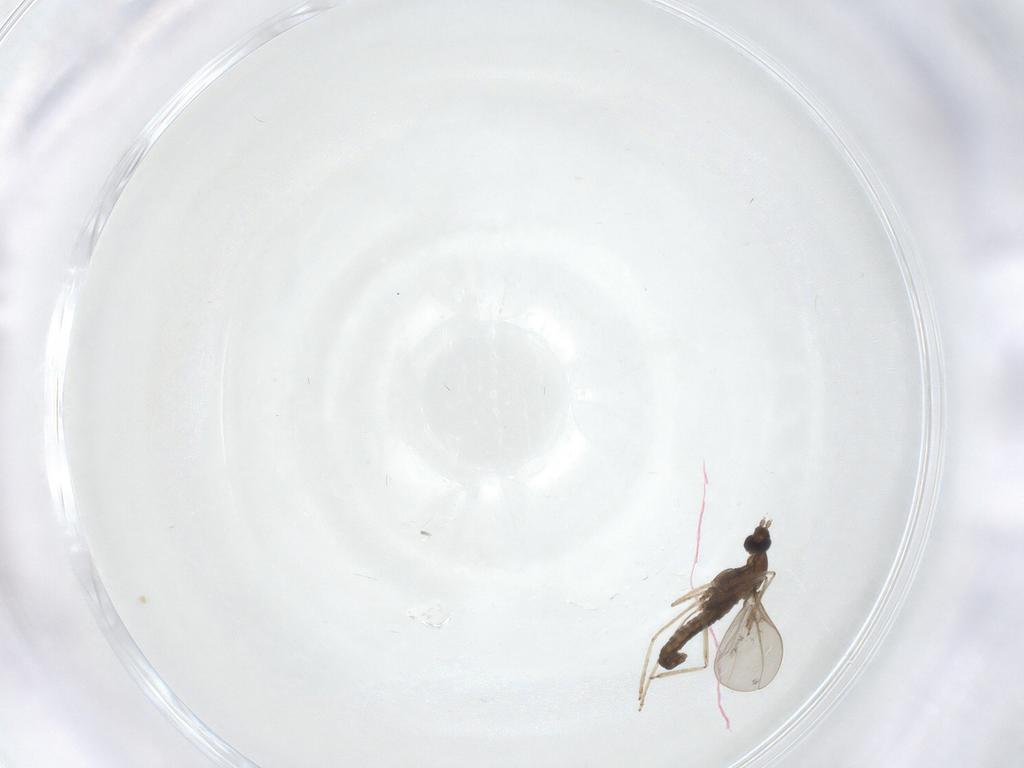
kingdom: Animalia
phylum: Arthropoda
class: Insecta
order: Diptera
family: Cecidomyiidae
